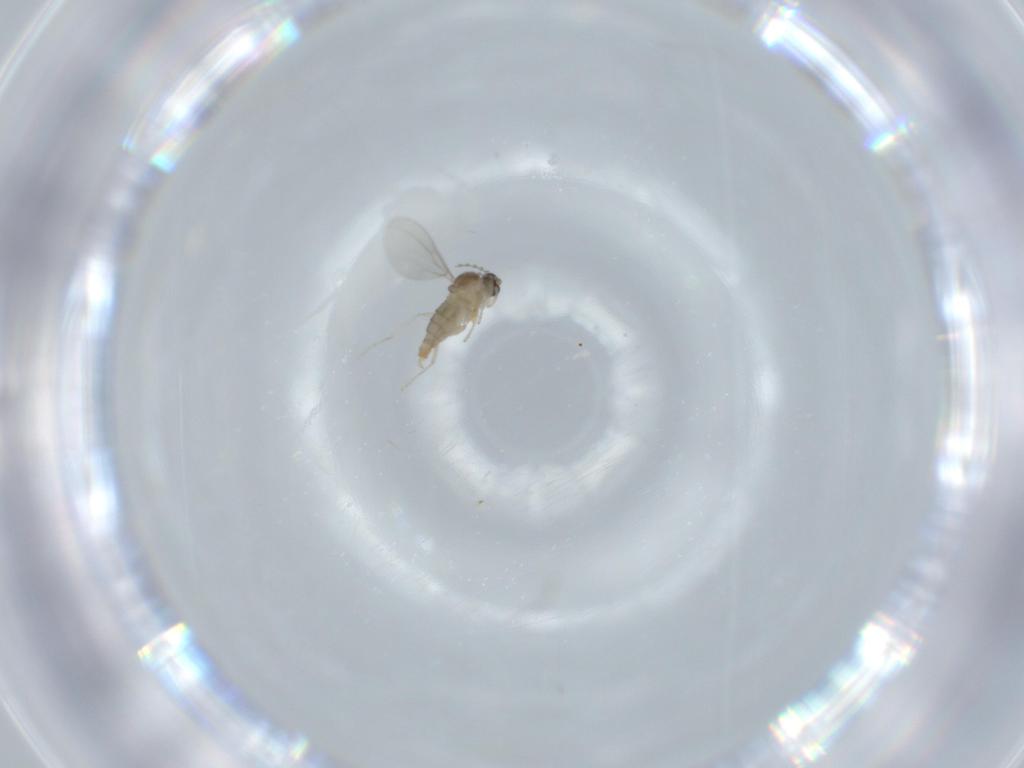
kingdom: Animalia
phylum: Arthropoda
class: Insecta
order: Diptera
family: Cecidomyiidae
